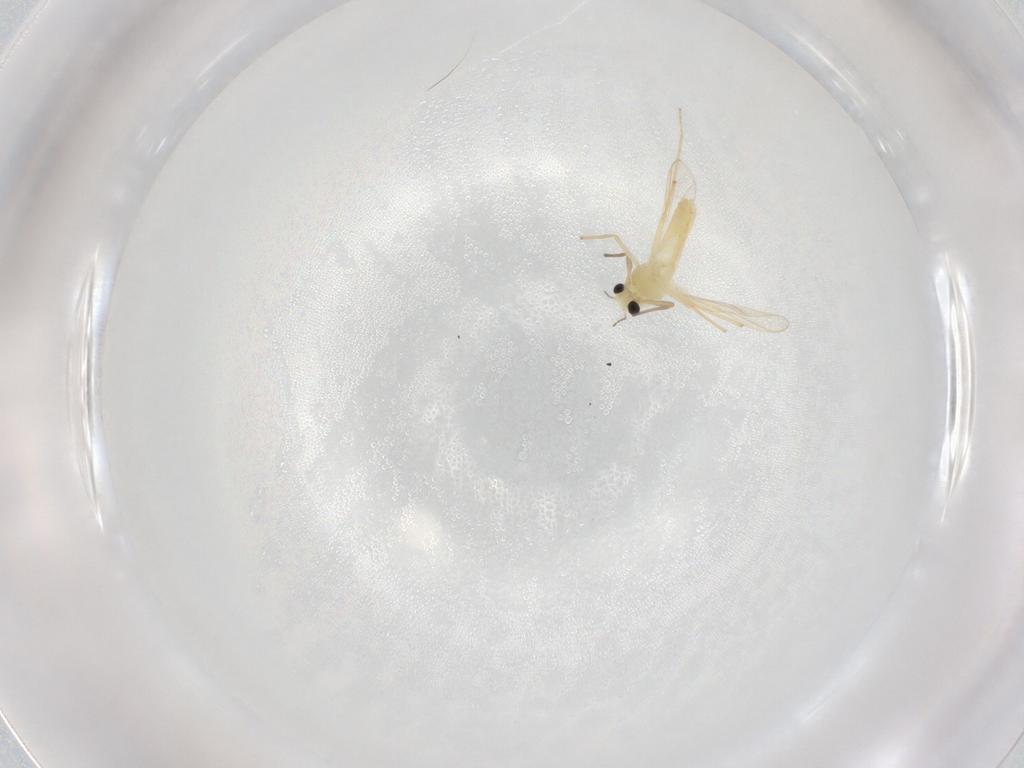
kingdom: Animalia
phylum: Arthropoda
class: Insecta
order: Diptera
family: Chironomidae
